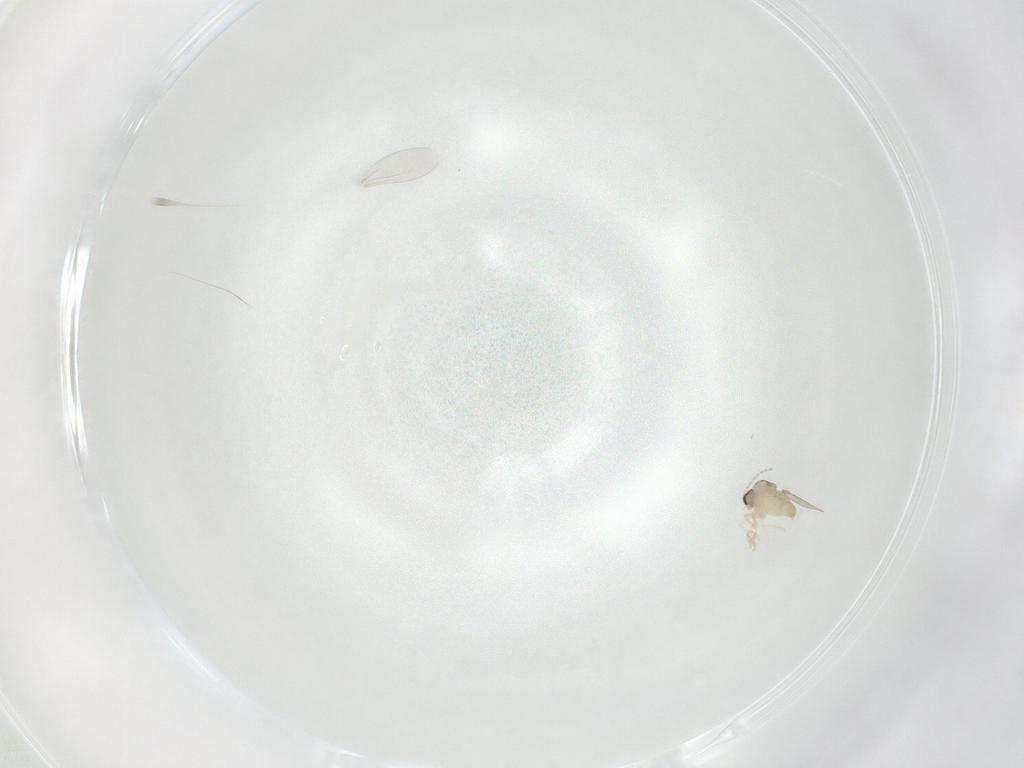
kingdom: Animalia
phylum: Arthropoda
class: Insecta
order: Diptera
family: Cecidomyiidae
